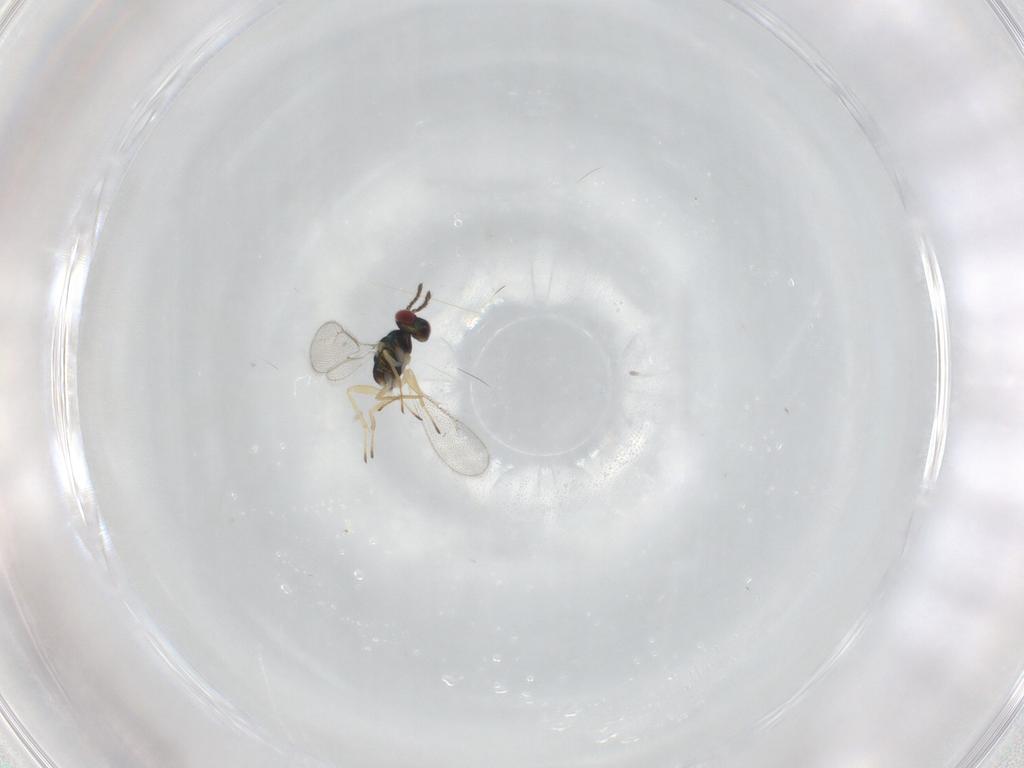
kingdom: Animalia
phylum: Arthropoda
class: Insecta
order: Hymenoptera
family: Eulophidae
